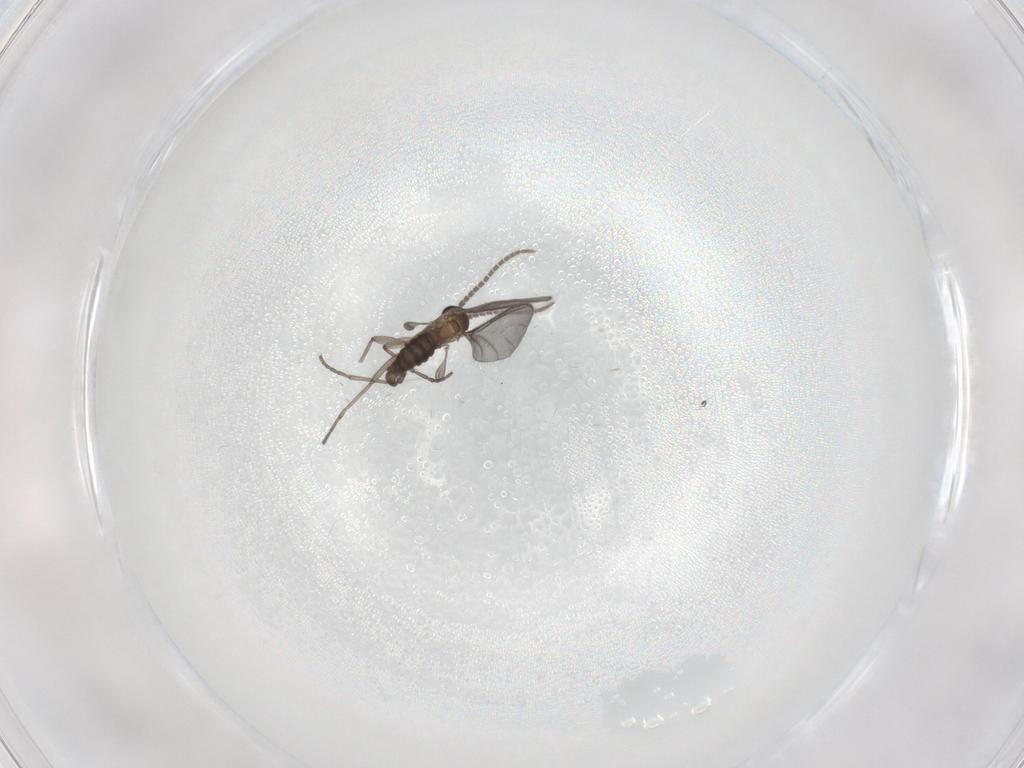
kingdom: Animalia
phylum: Arthropoda
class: Insecta
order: Diptera
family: Sciaridae
